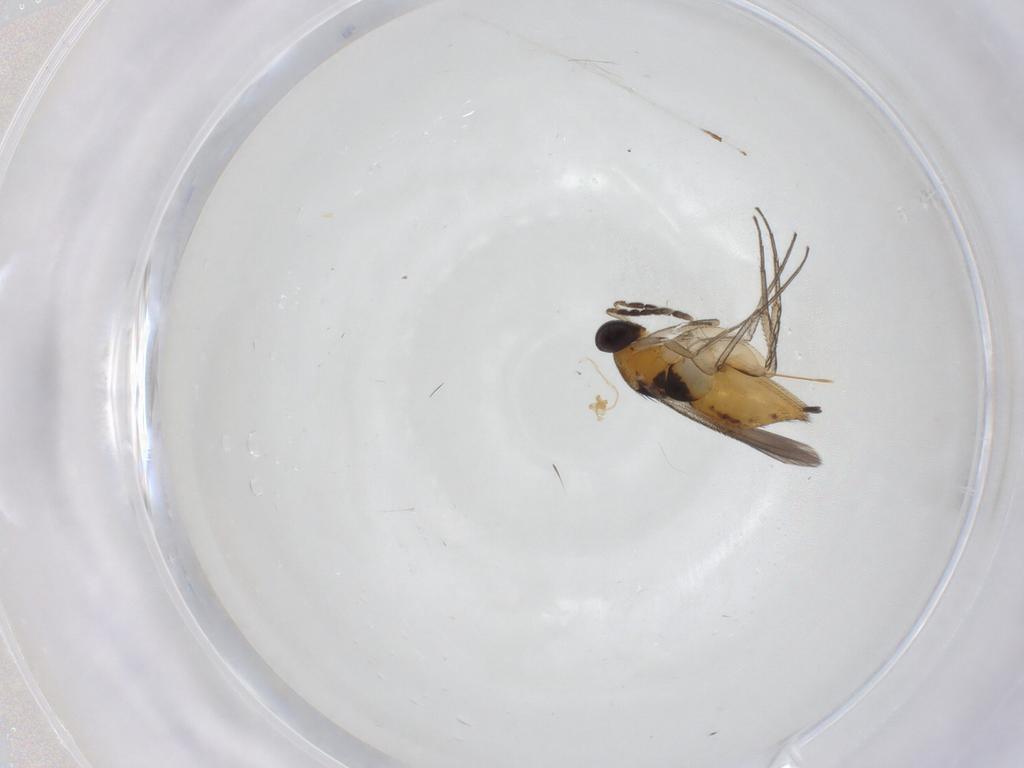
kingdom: Animalia
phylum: Arthropoda
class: Insecta
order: Hymenoptera
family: Eulophidae
